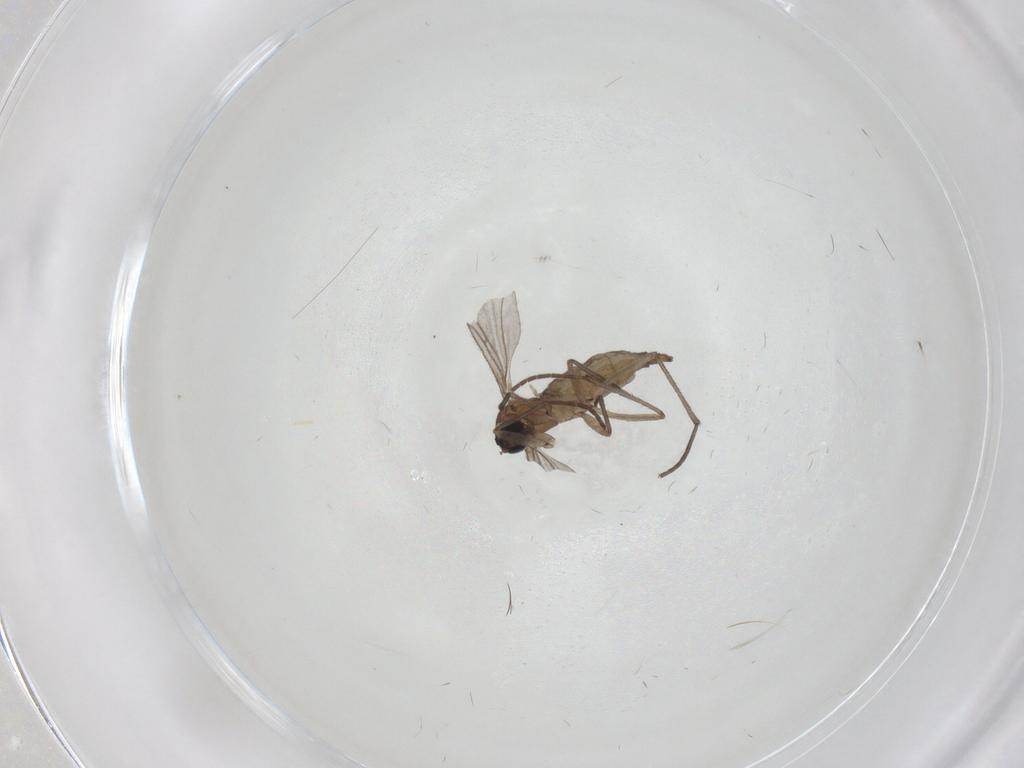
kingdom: Animalia
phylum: Arthropoda
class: Insecta
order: Diptera
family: Sciaridae
